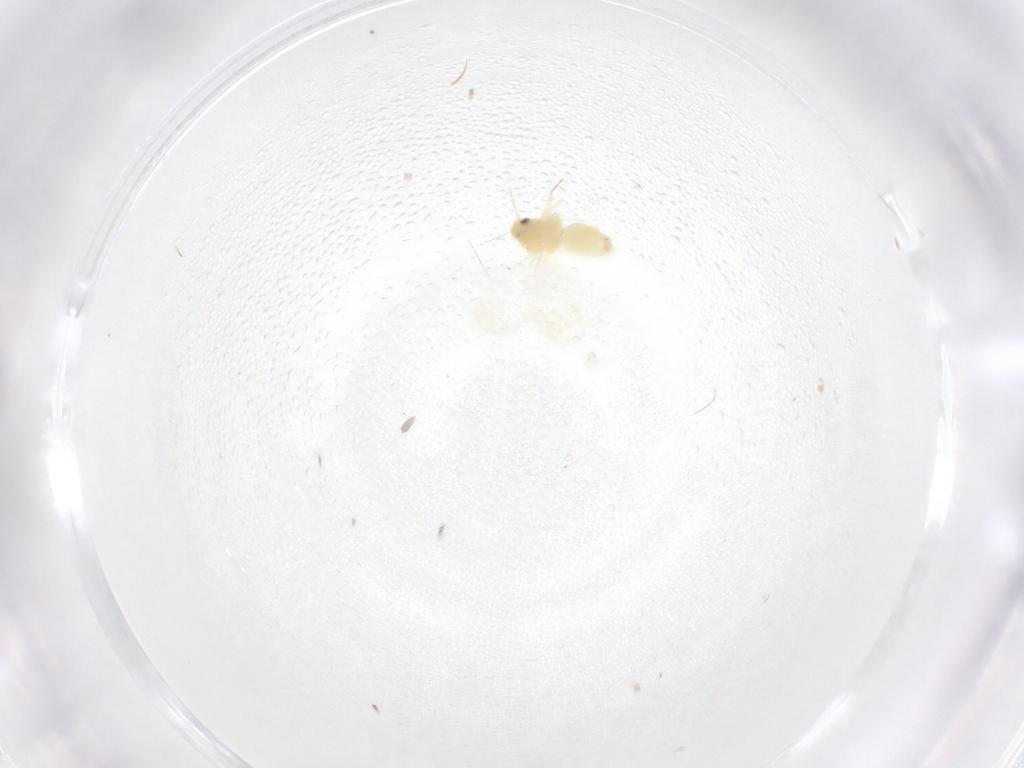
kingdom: Animalia
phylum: Arthropoda
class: Insecta
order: Hemiptera
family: Aleyrodidae
